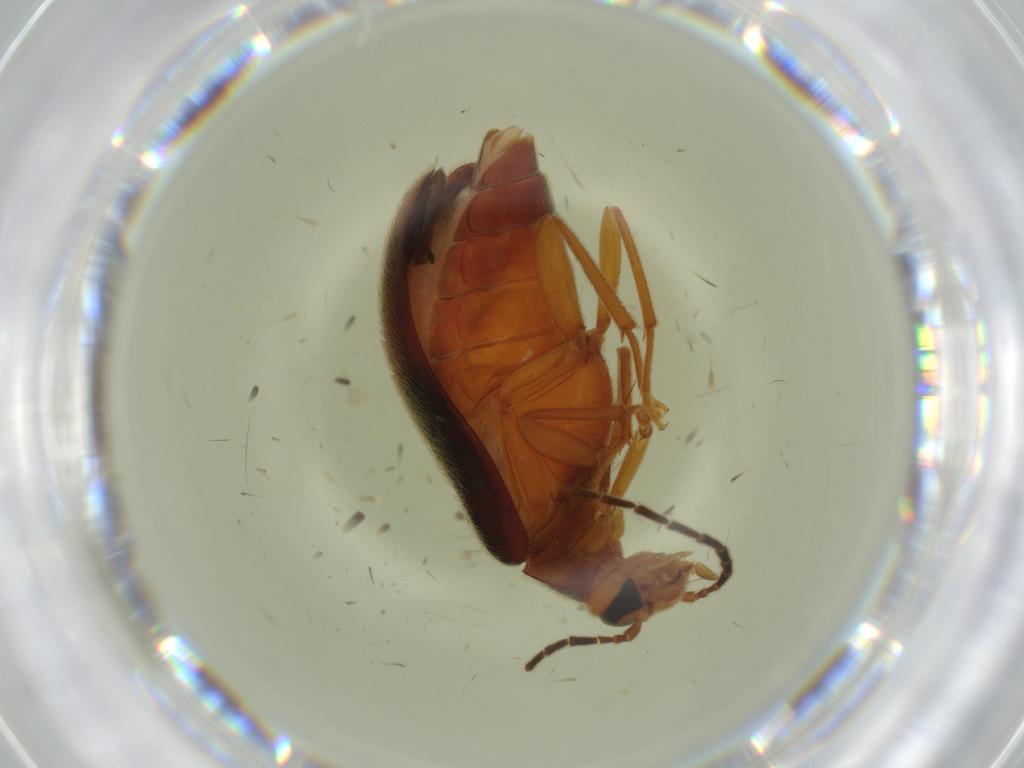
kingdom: Animalia
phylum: Arthropoda
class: Insecta
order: Coleoptera
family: Chrysomelidae
